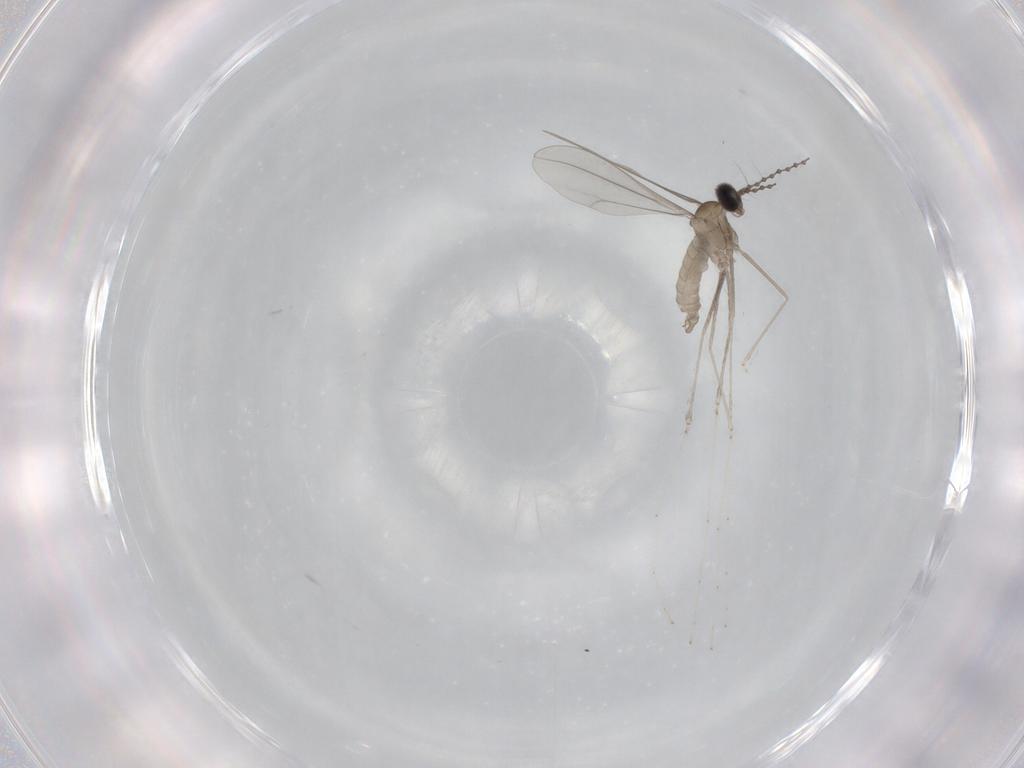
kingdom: Animalia
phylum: Arthropoda
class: Insecta
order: Diptera
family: Cecidomyiidae
